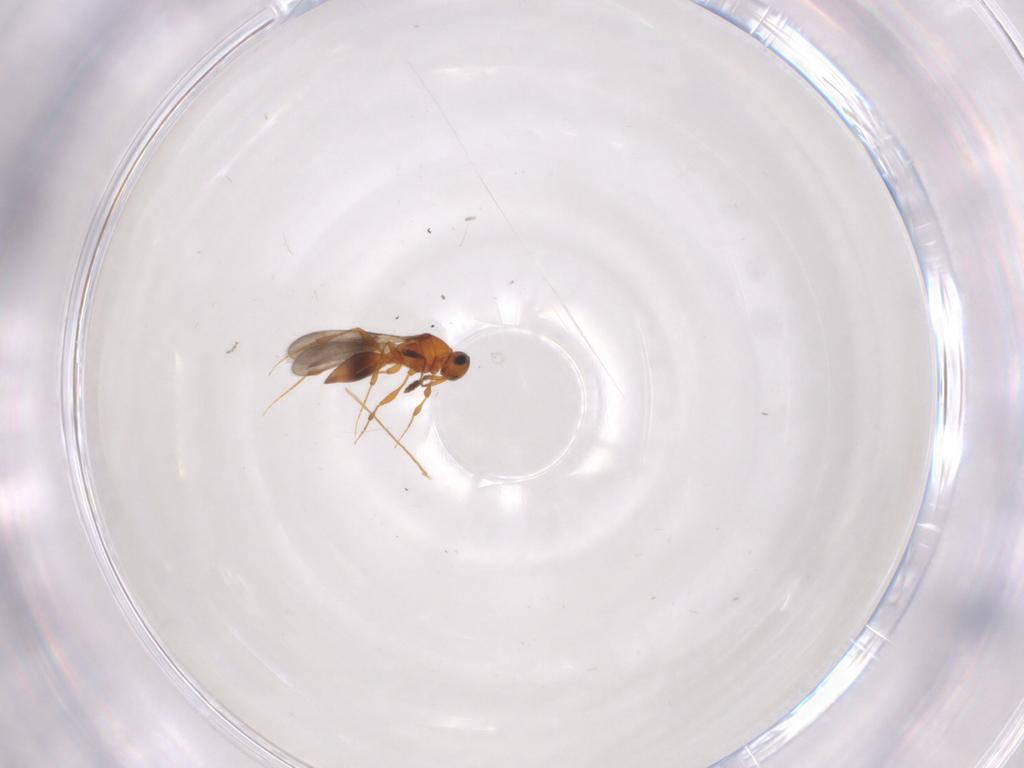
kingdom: Animalia
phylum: Arthropoda
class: Insecta
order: Hymenoptera
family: Platygastridae
